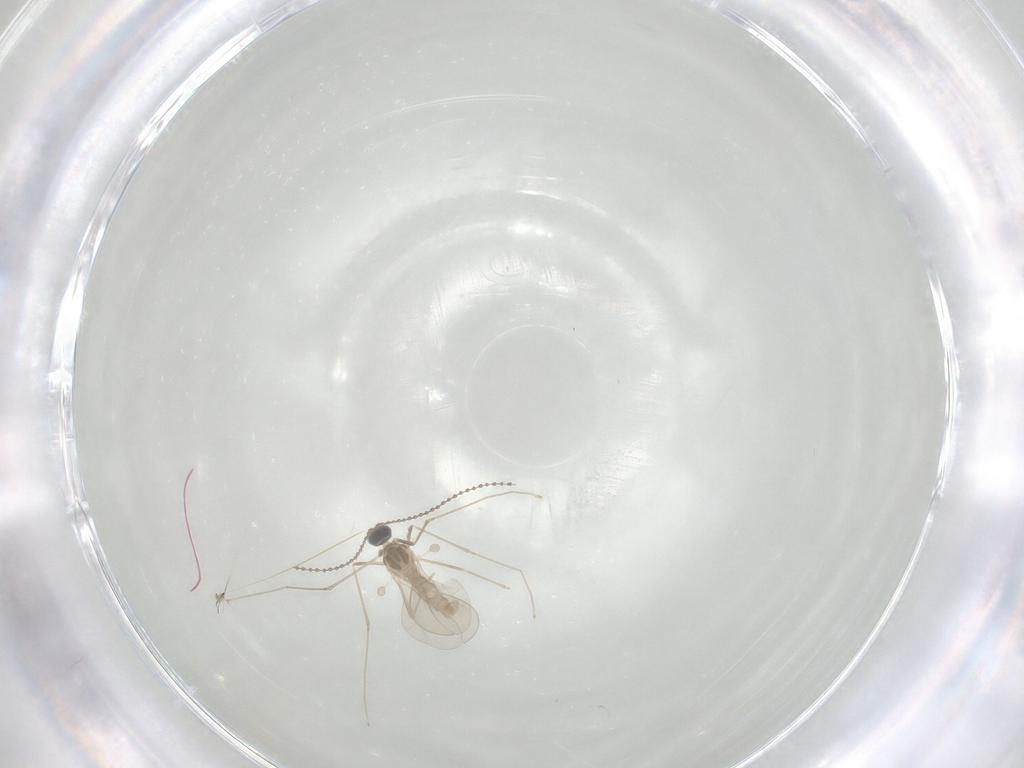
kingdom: Animalia
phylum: Arthropoda
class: Insecta
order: Diptera
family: Cecidomyiidae
